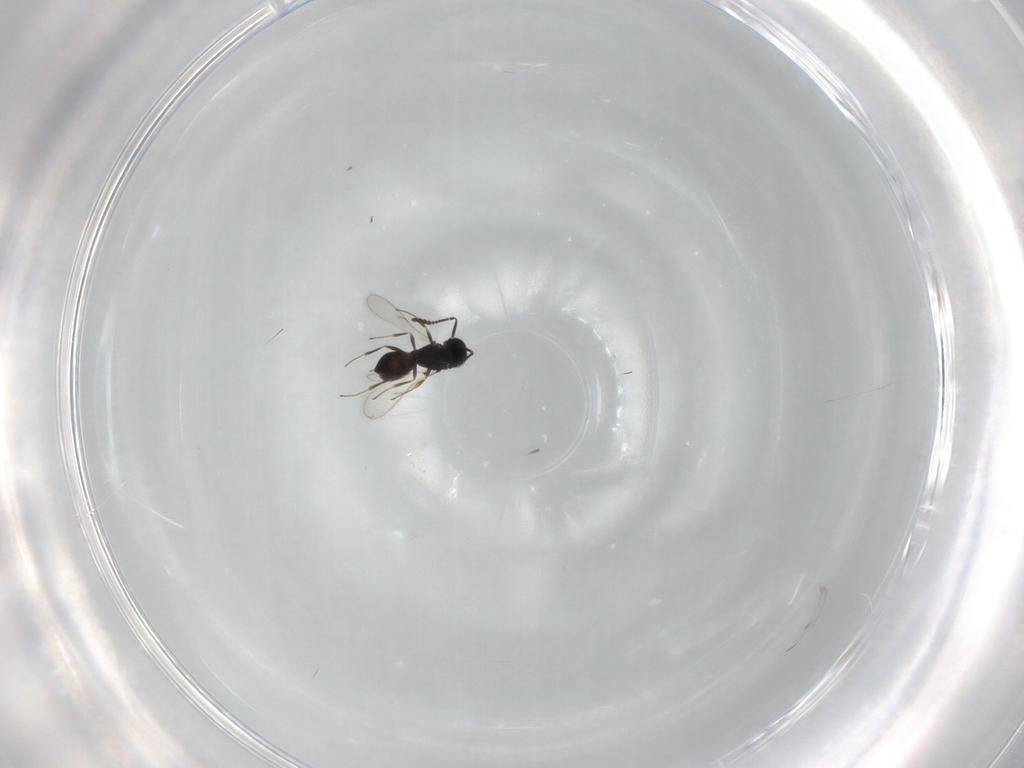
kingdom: Animalia
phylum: Arthropoda
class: Insecta
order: Hymenoptera
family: Scelionidae
